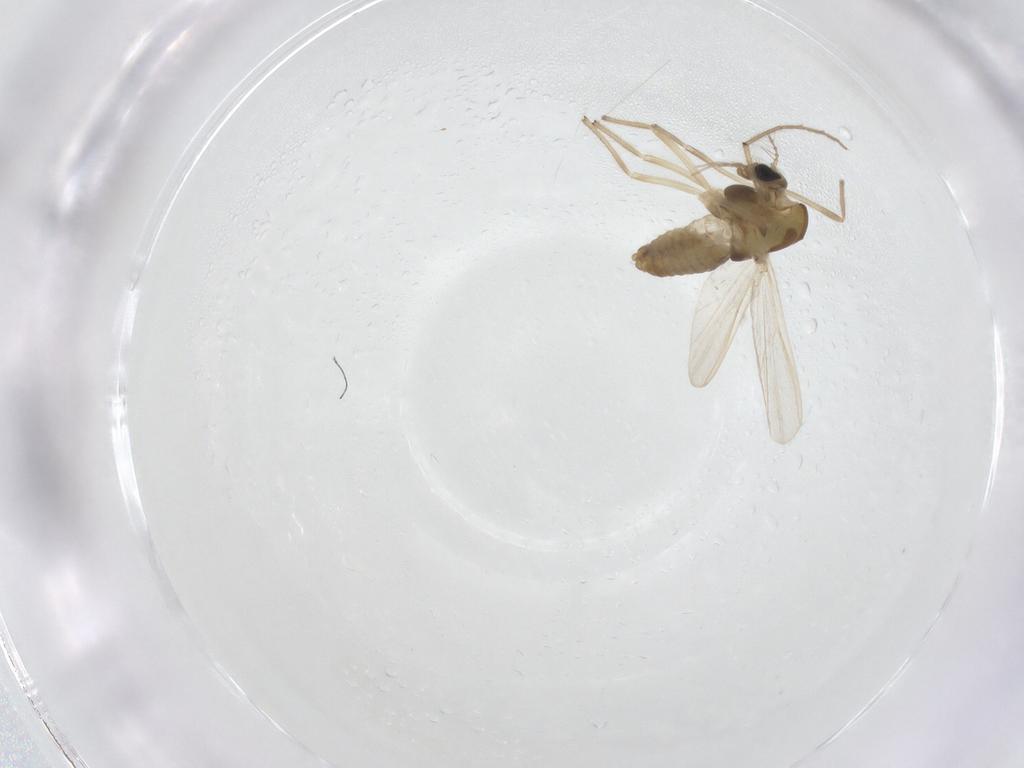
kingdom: Animalia
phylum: Arthropoda
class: Insecta
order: Diptera
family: Chironomidae
